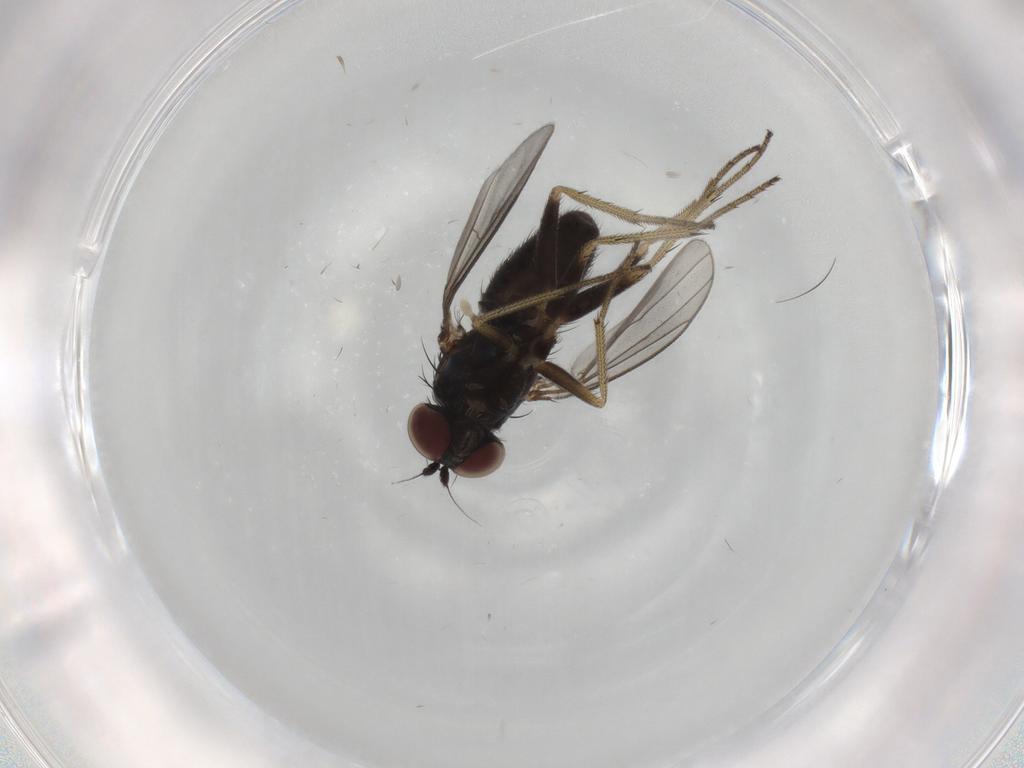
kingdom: Animalia
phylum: Arthropoda
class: Insecta
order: Diptera
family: Dolichopodidae
